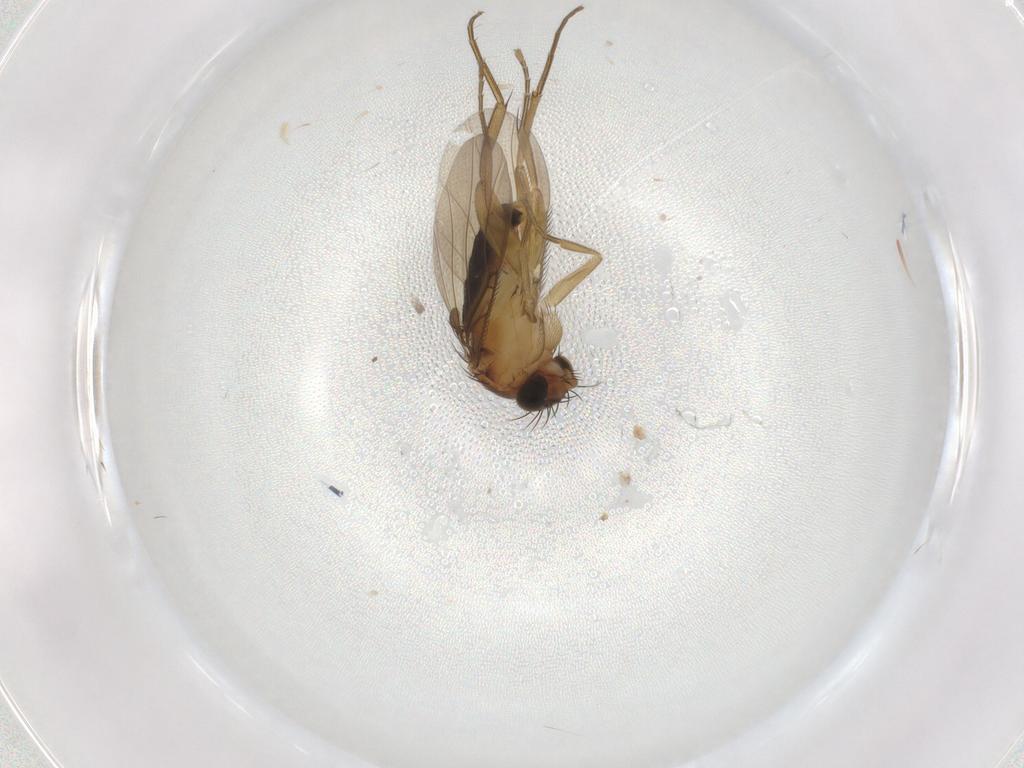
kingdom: Animalia
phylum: Arthropoda
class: Insecta
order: Diptera
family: Phoridae
